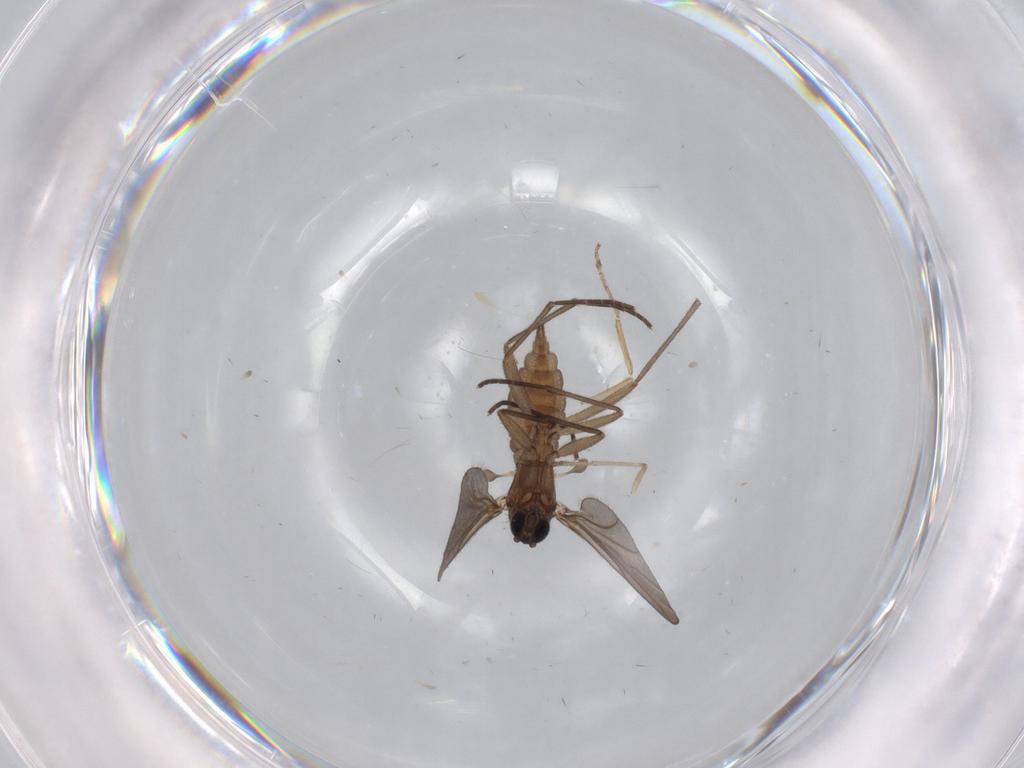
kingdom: Animalia
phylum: Arthropoda
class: Insecta
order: Diptera
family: Sciaridae
